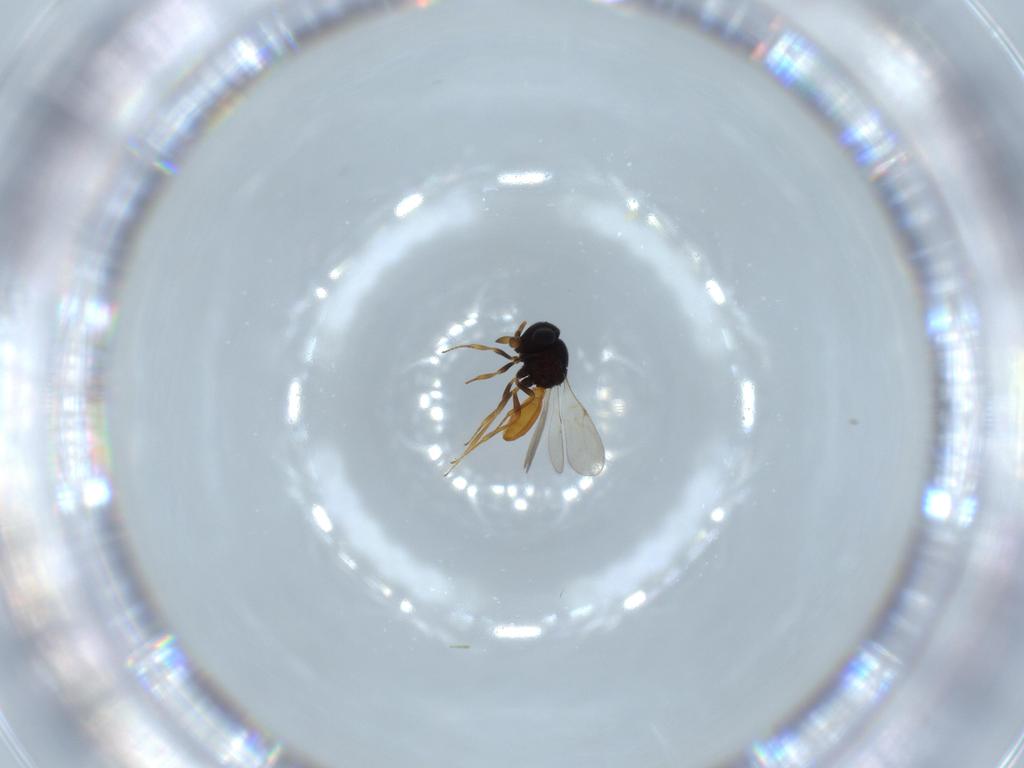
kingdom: Animalia
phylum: Arthropoda
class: Insecta
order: Hymenoptera
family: Scelionidae
